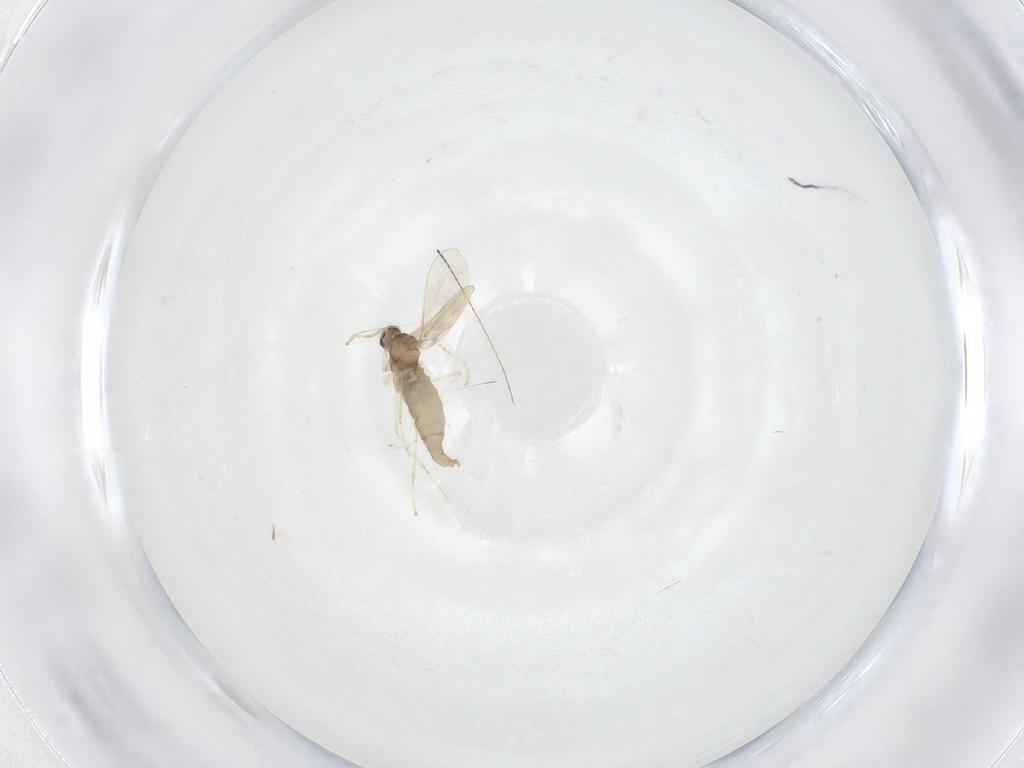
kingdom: Animalia
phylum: Arthropoda
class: Insecta
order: Diptera
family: Cecidomyiidae
